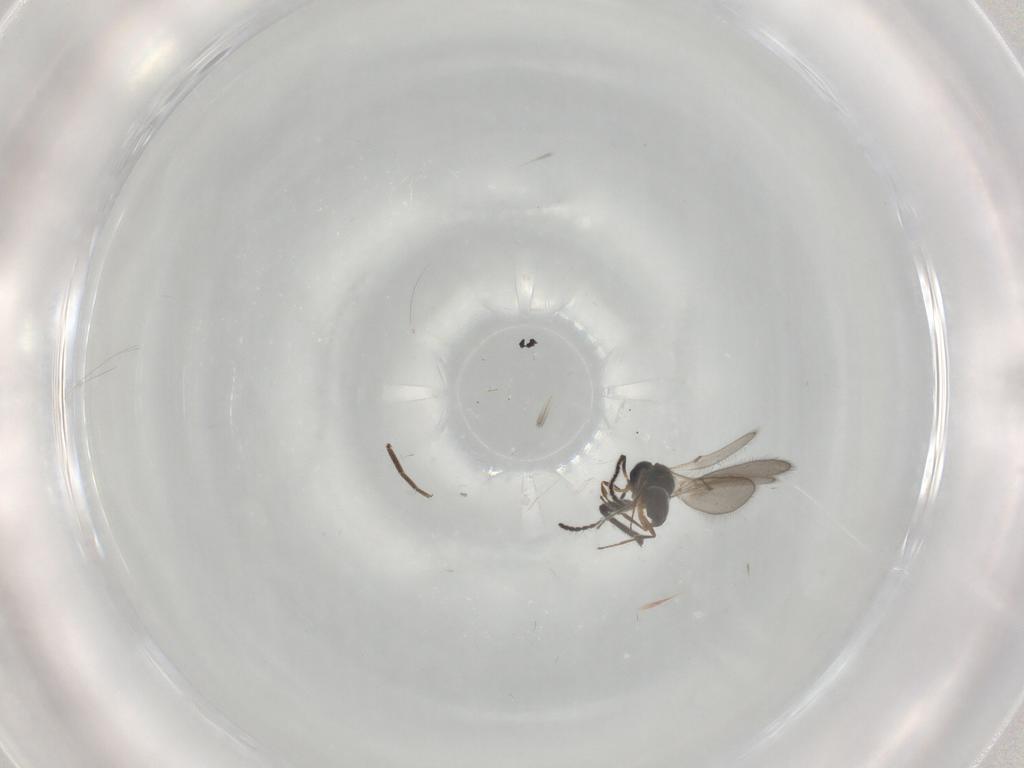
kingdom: Animalia
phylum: Arthropoda
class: Insecta
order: Hymenoptera
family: Scelionidae
